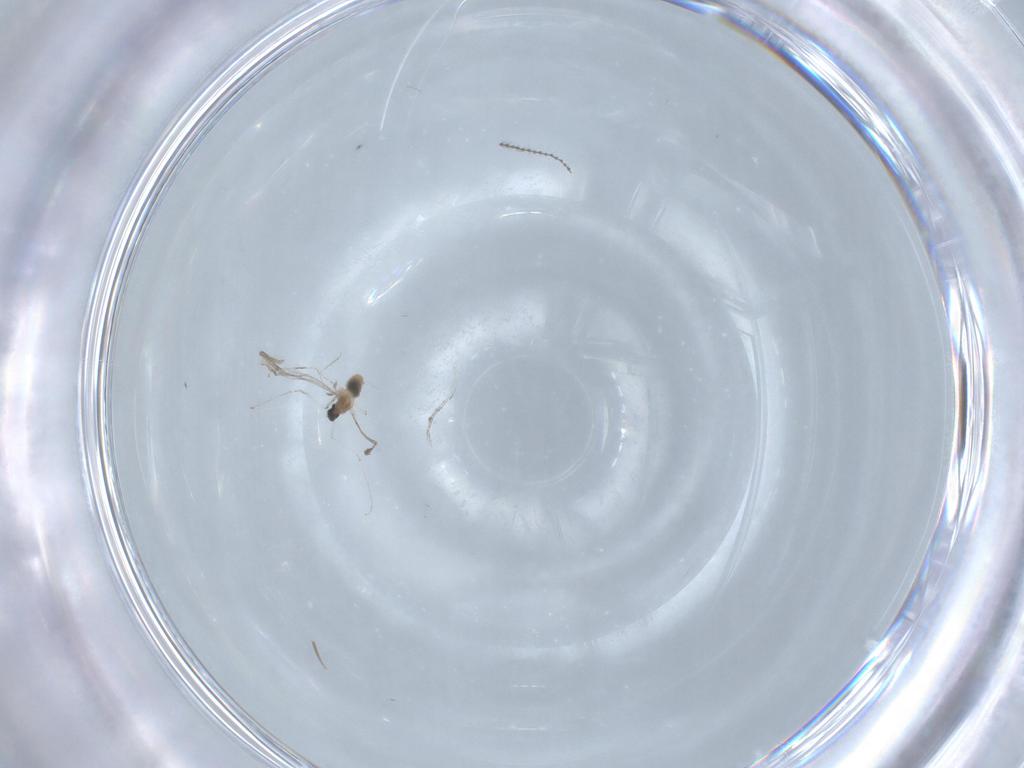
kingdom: Animalia
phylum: Arthropoda
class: Insecta
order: Diptera
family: Chironomidae
